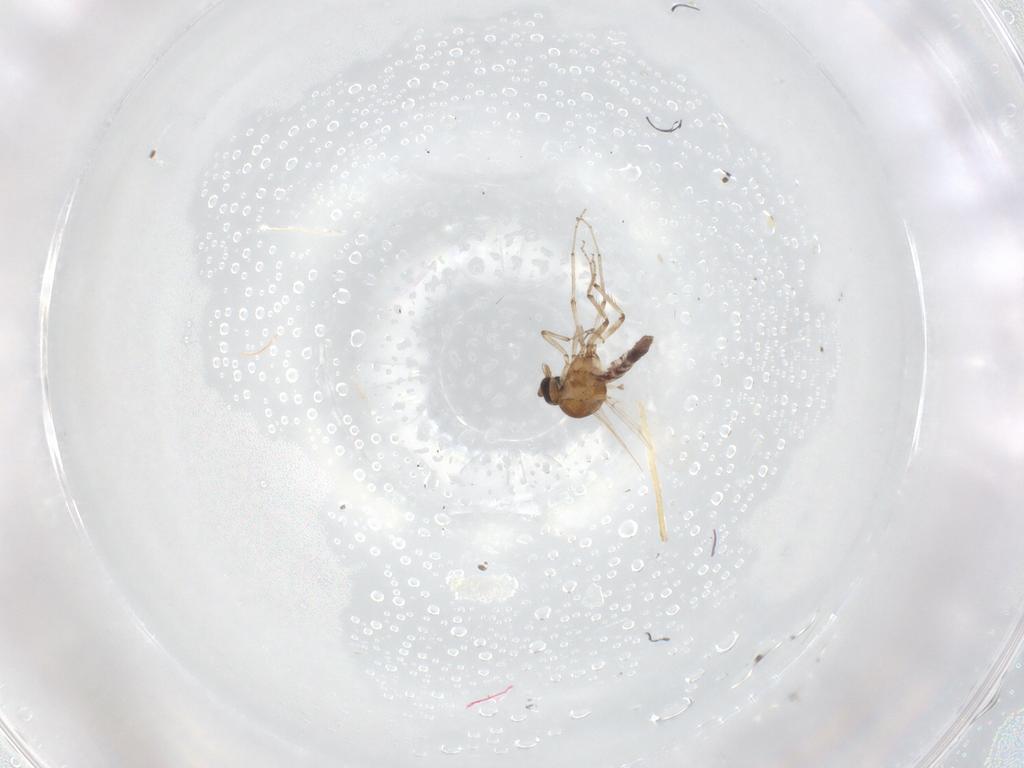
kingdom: Animalia
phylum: Arthropoda
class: Insecta
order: Diptera
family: Ceratopogonidae
